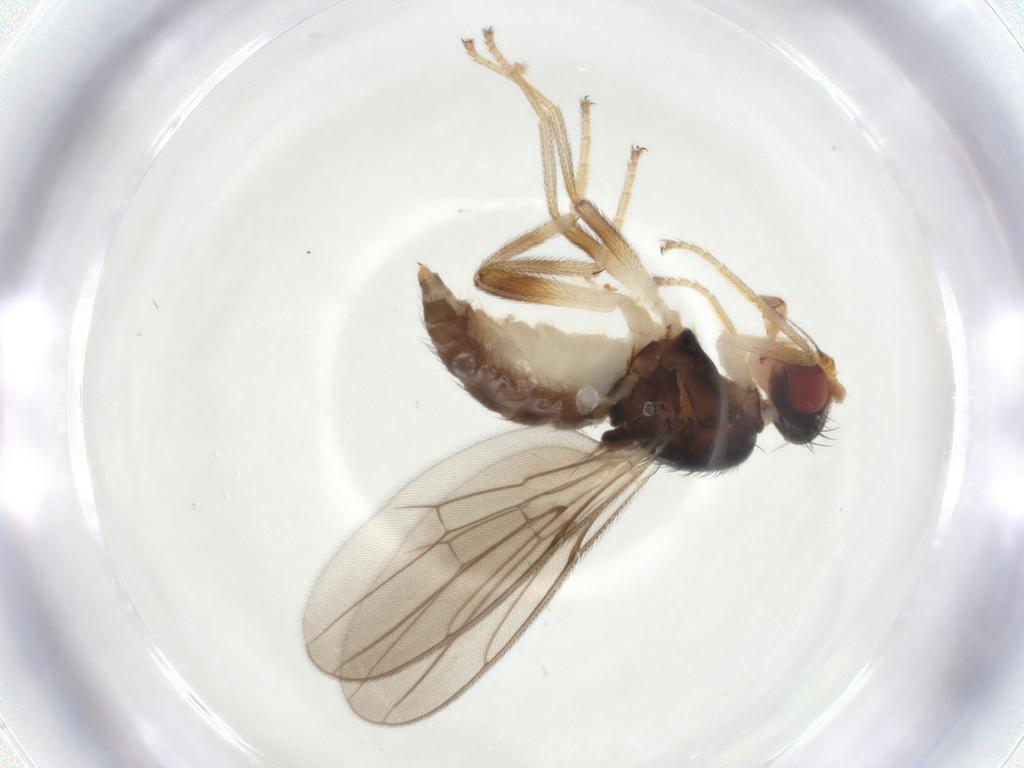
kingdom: Animalia
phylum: Arthropoda
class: Insecta
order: Diptera
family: Chloropidae
